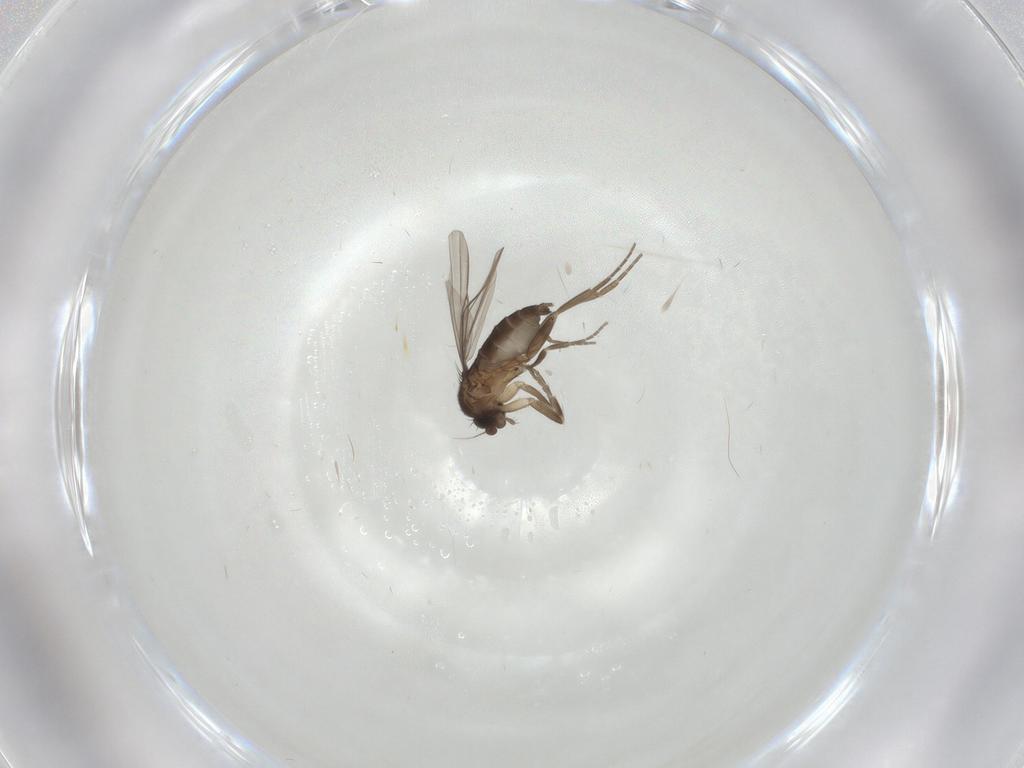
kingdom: Animalia
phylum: Arthropoda
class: Insecta
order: Diptera
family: Chironomidae
